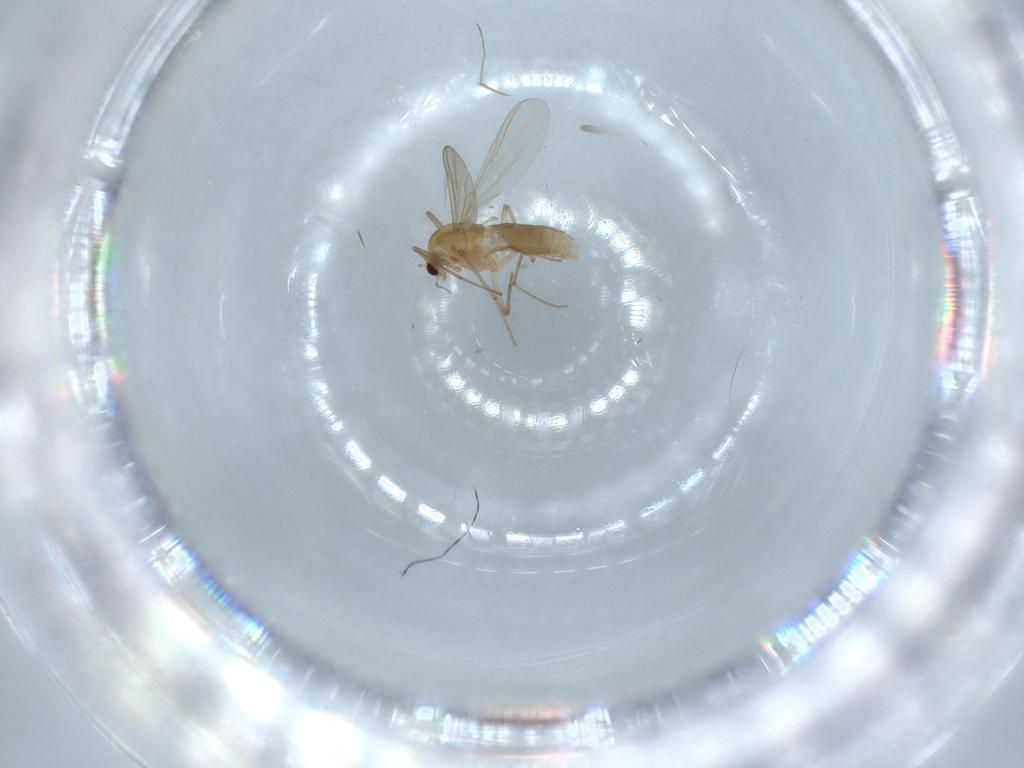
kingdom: Animalia
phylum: Arthropoda
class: Insecta
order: Diptera
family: Chironomidae
